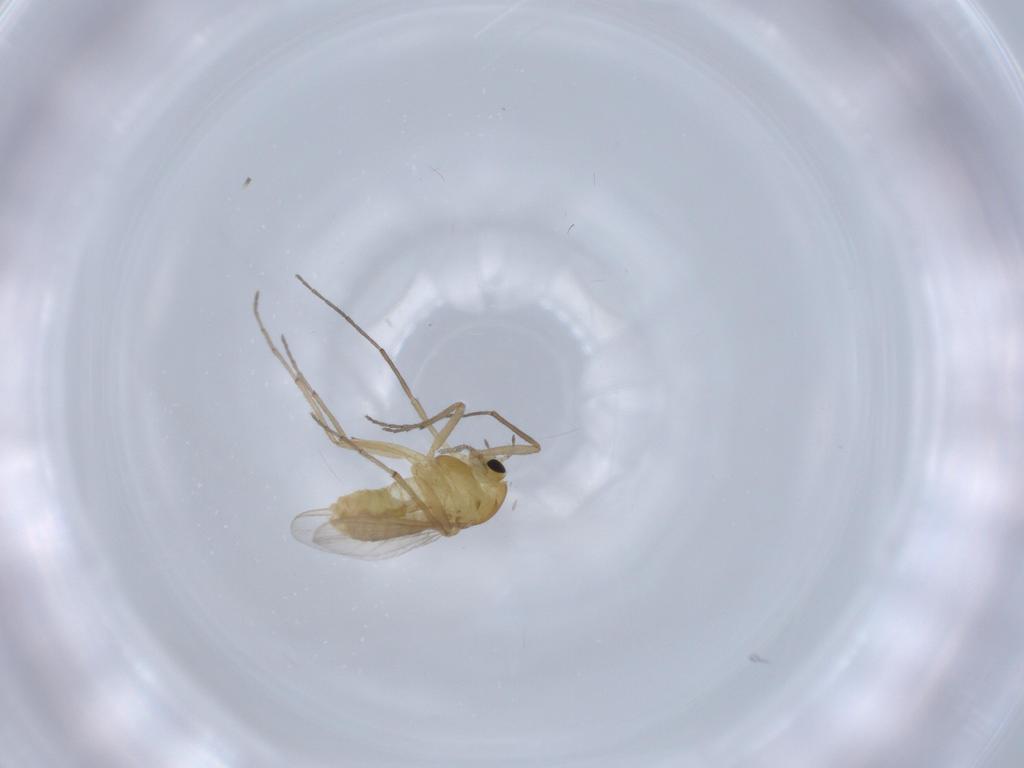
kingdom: Animalia
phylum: Arthropoda
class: Insecta
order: Diptera
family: Chironomidae
